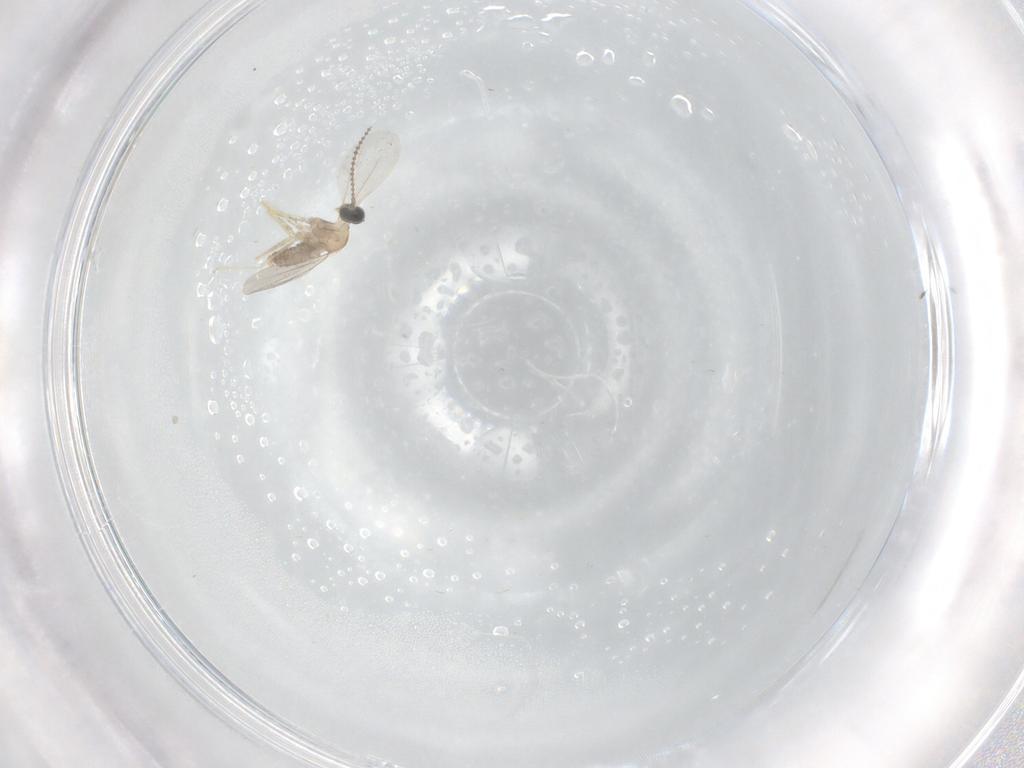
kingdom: Animalia
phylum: Arthropoda
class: Insecta
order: Diptera
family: Cecidomyiidae
